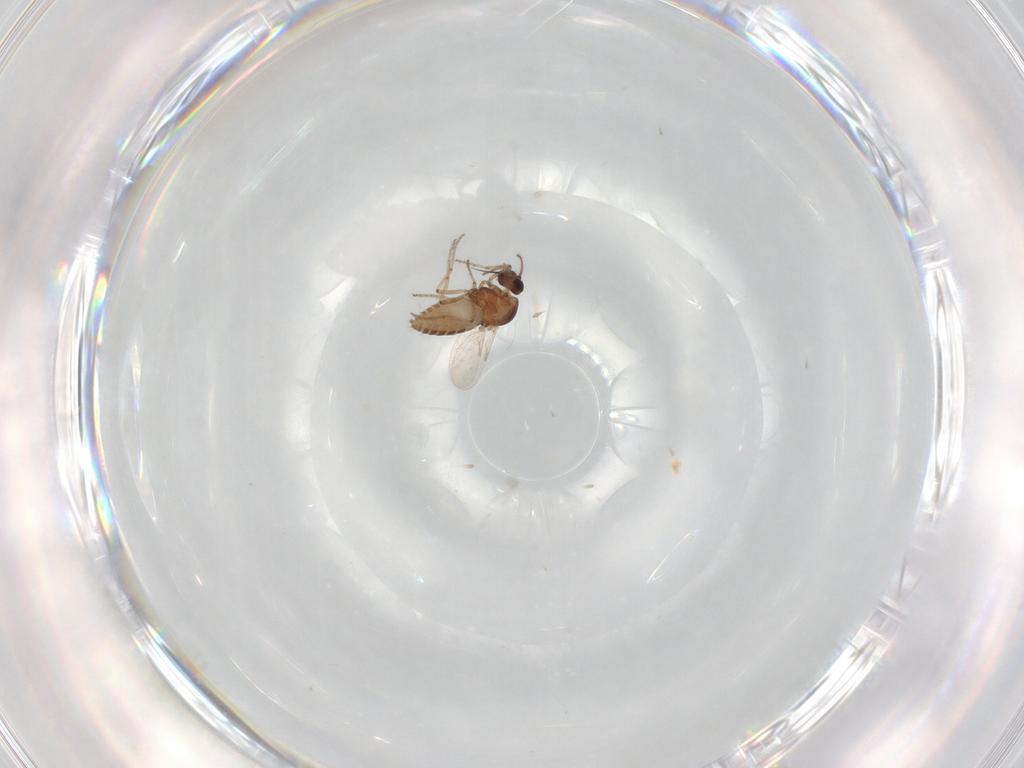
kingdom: Animalia
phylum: Arthropoda
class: Insecta
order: Diptera
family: Ceratopogonidae
